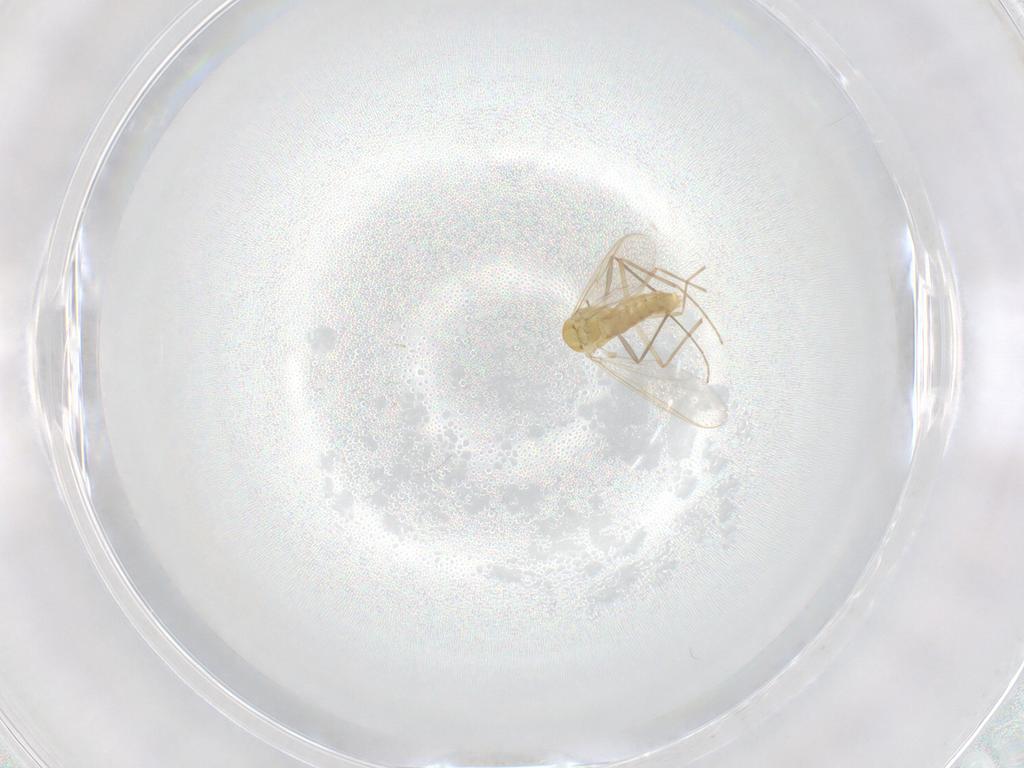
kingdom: Animalia
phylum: Arthropoda
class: Insecta
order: Diptera
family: Chironomidae
